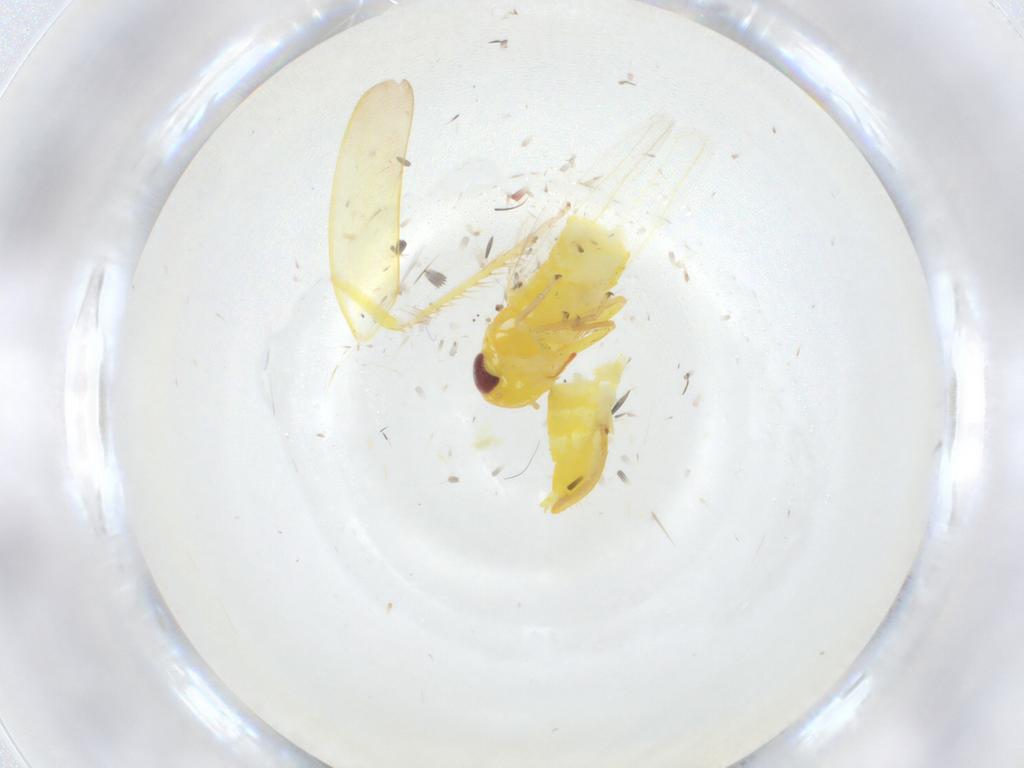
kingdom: Animalia
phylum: Arthropoda
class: Insecta
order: Hemiptera
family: Cicadellidae
